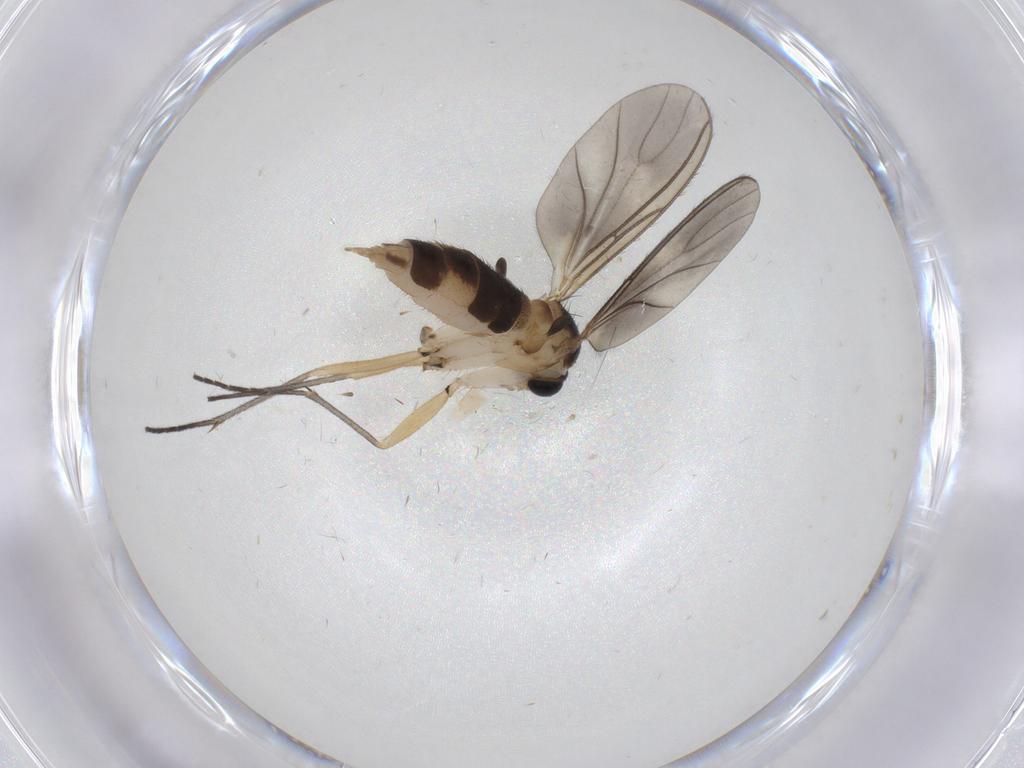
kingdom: Animalia
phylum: Arthropoda
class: Insecta
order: Diptera
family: Sciaridae
